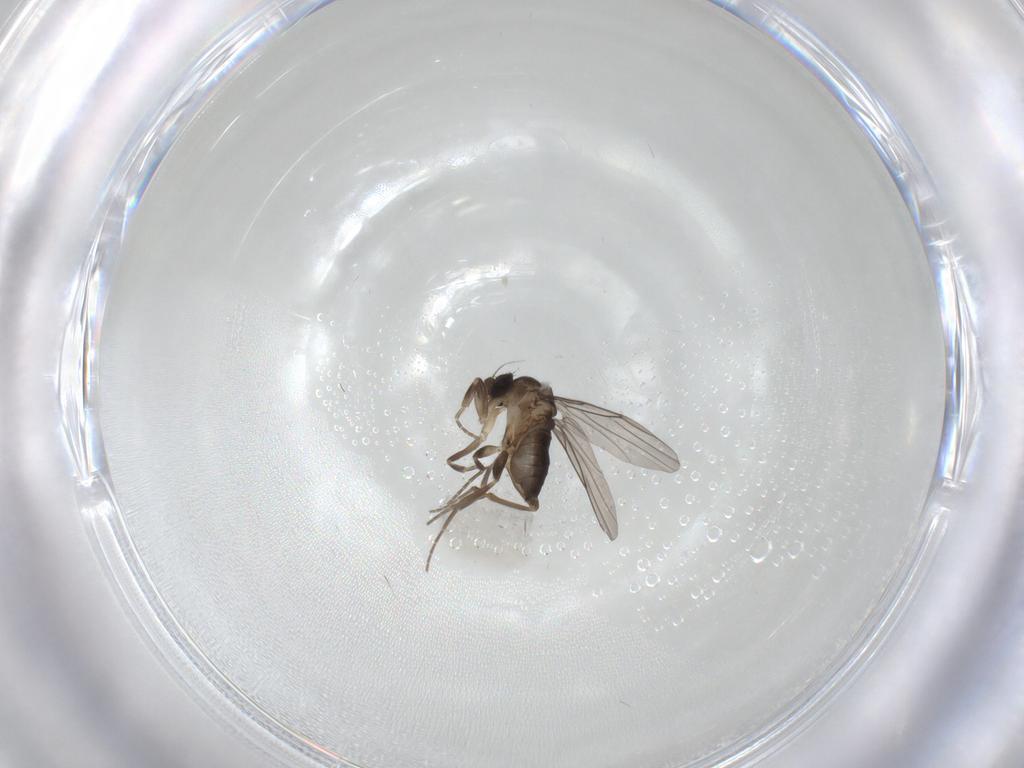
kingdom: Animalia
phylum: Arthropoda
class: Insecta
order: Diptera
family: Phoridae
